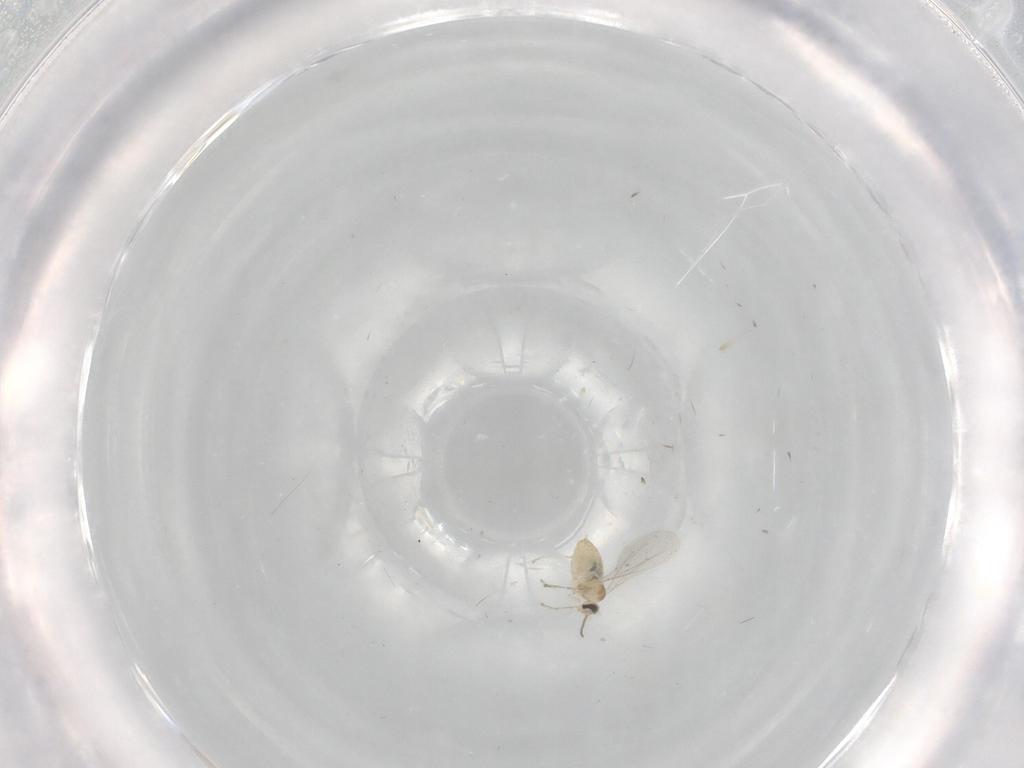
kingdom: Animalia
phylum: Arthropoda
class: Insecta
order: Diptera
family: Cecidomyiidae
